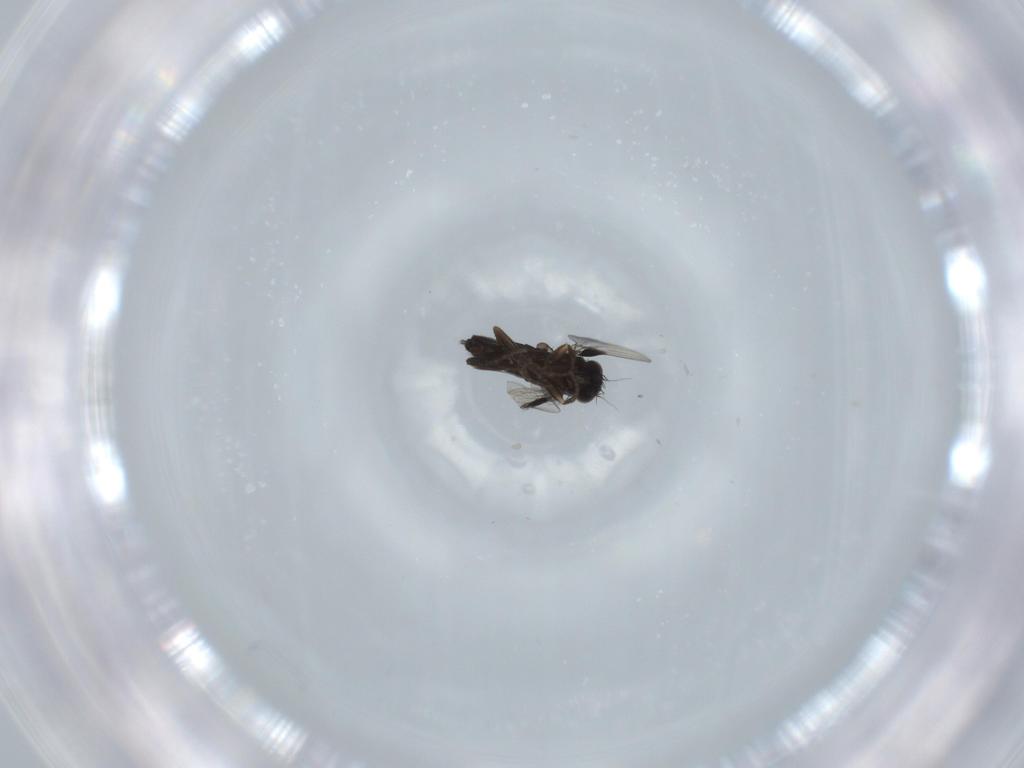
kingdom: Animalia
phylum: Arthropoda
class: Insecta
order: Diptera
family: Phoridae
